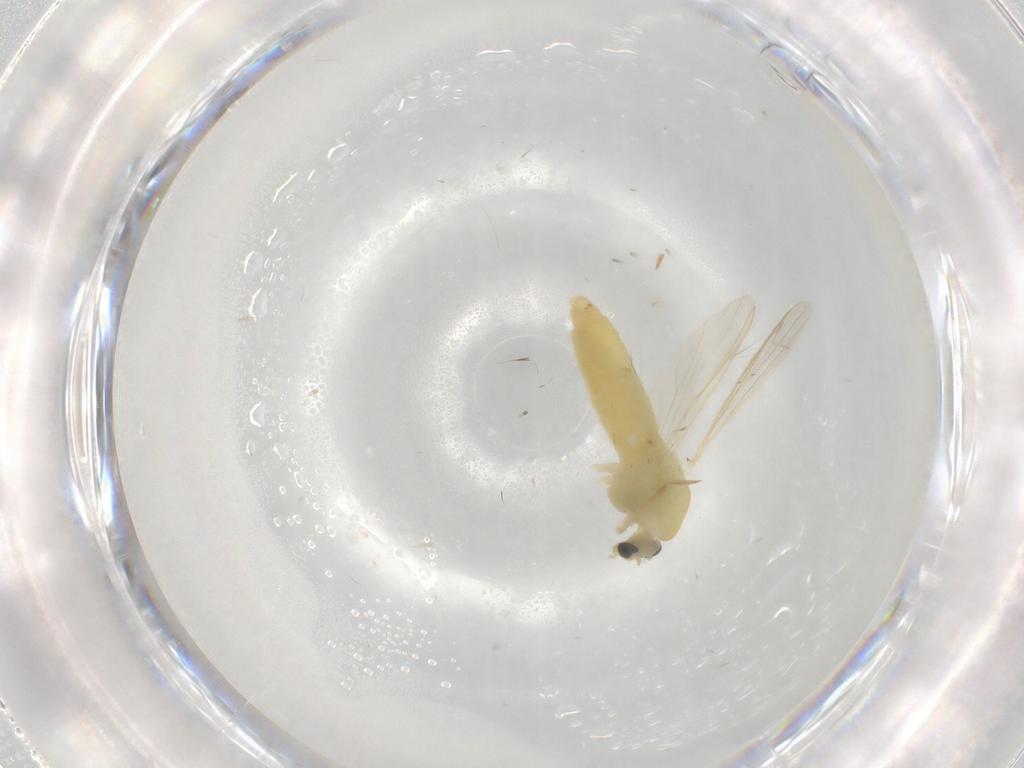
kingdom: Animalia
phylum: Arthropoda
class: Insecta
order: Diptera
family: Chironomidae
